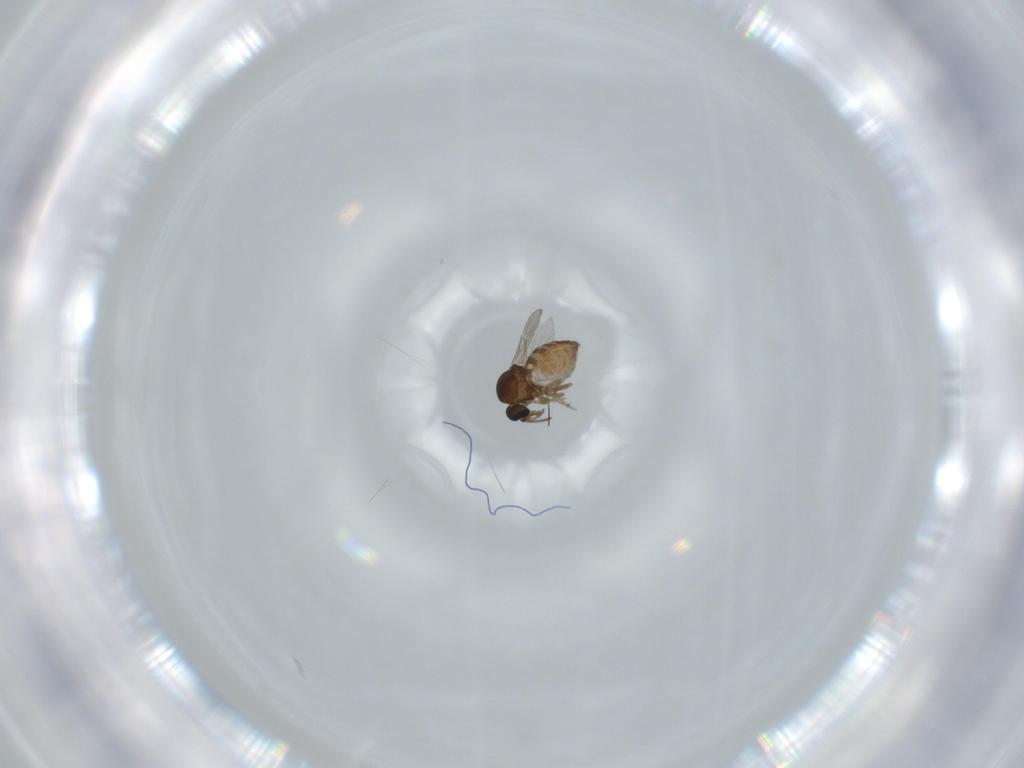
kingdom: Animalia
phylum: Arthropoda
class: Insecta
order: Diptera
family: Ceratopogonidae
